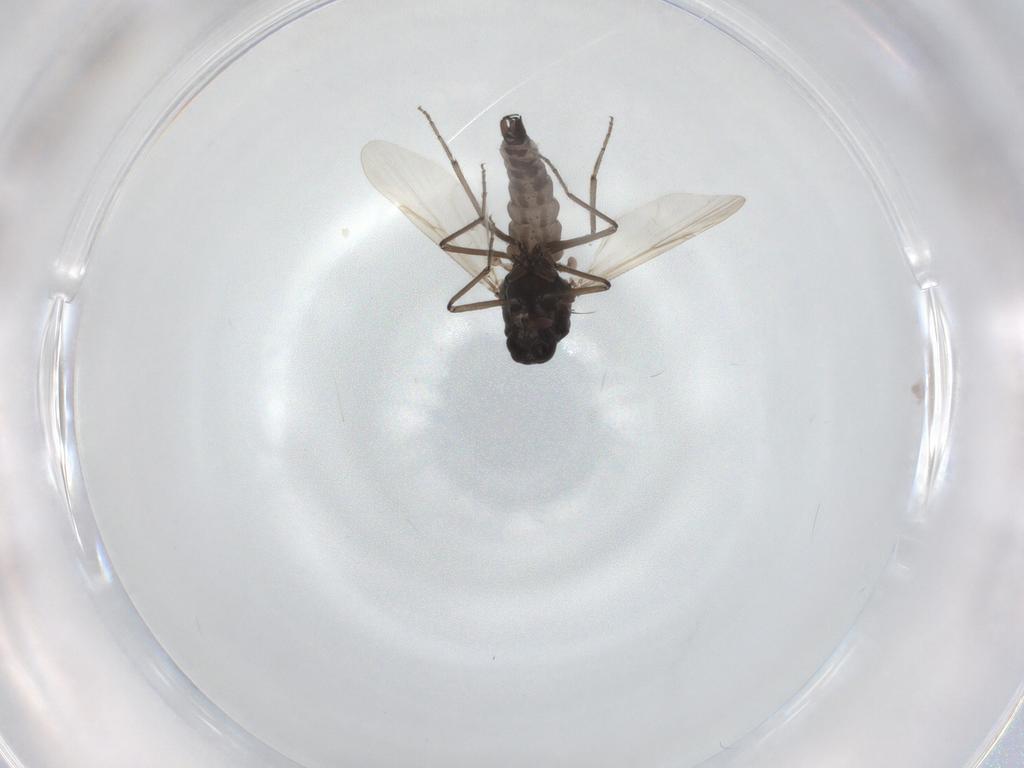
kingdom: Animalia
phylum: Arthropoda
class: Insecta
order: Diptera
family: Ceratopogonidae
